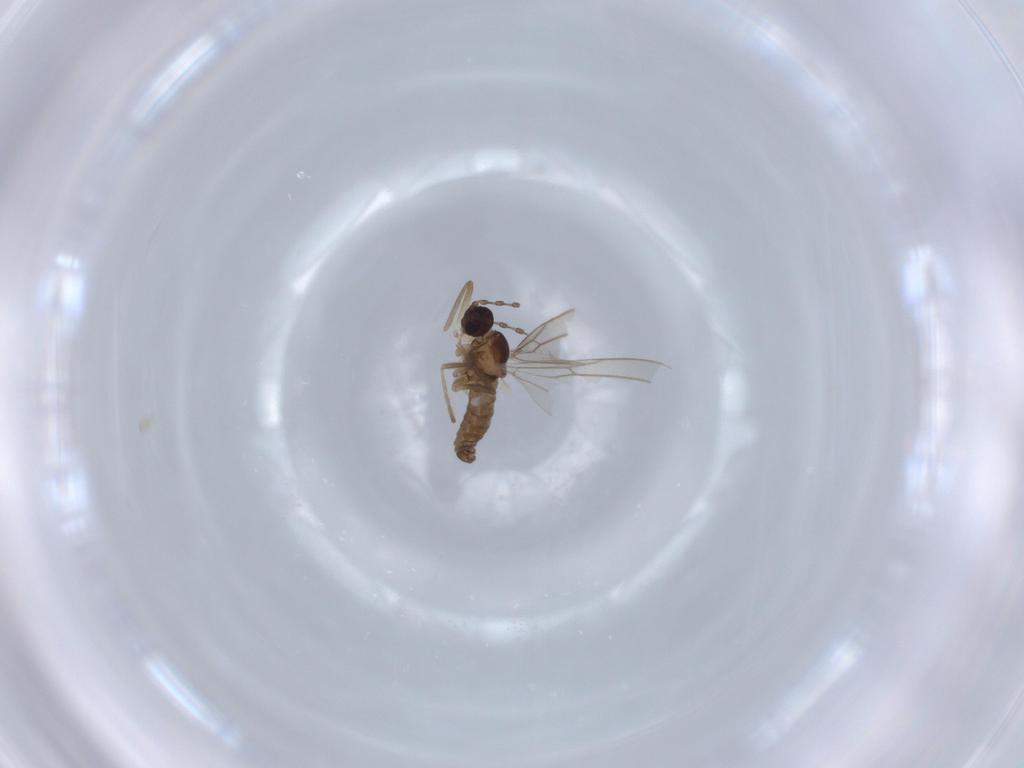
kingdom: Animalia
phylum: Arthropoda
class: Insecta
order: Diptera
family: Cecidomyiidae
